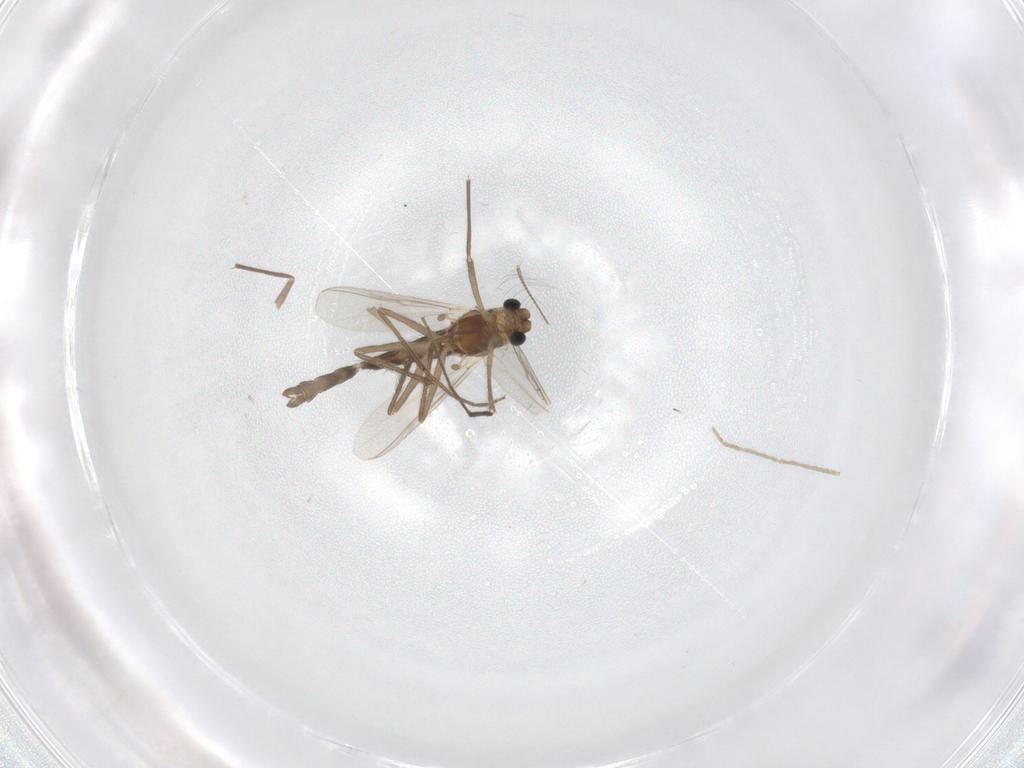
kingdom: Animalia
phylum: Arthropoda
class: Insecta
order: Diptera
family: Chironomidae
